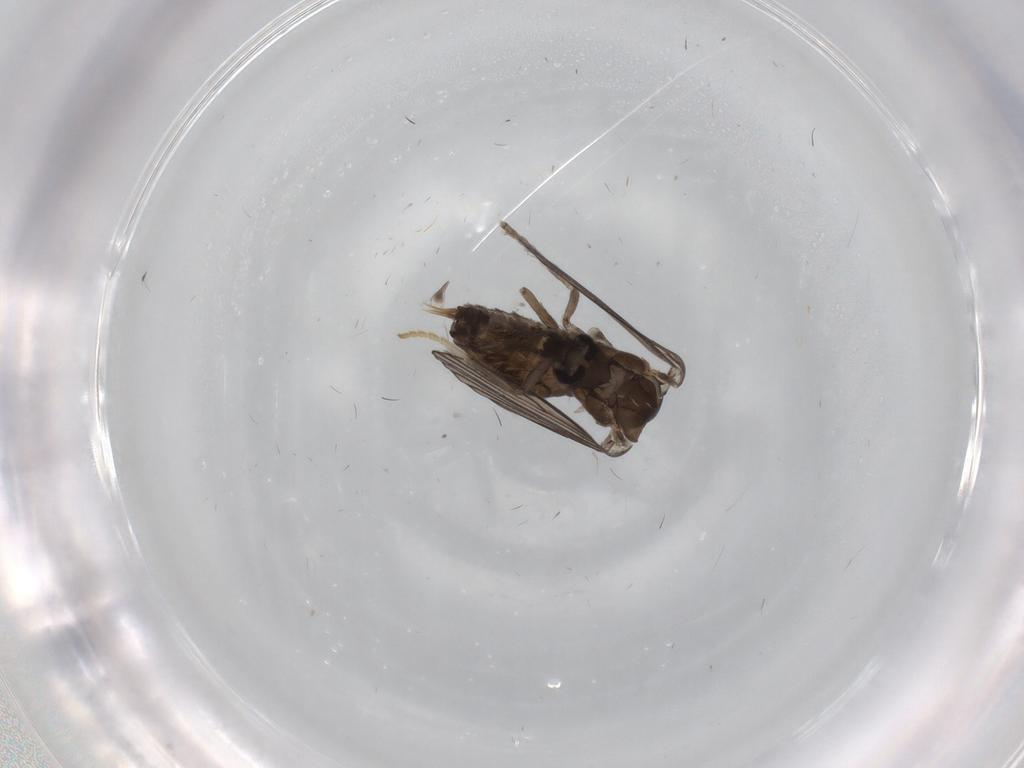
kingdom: Animalia
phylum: Arthropoda
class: Insecta
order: Diptera
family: Psychodidae
